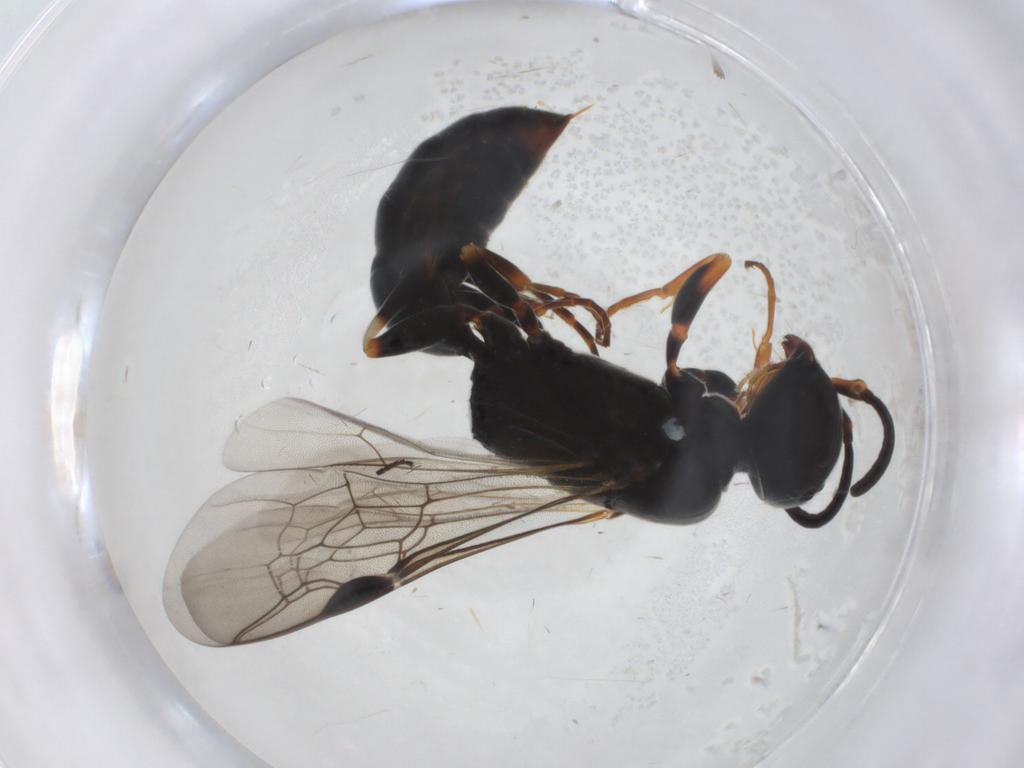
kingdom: Animalia
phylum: Arthropoda
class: Insecta
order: Hymenoptera
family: Pemphredonidae
